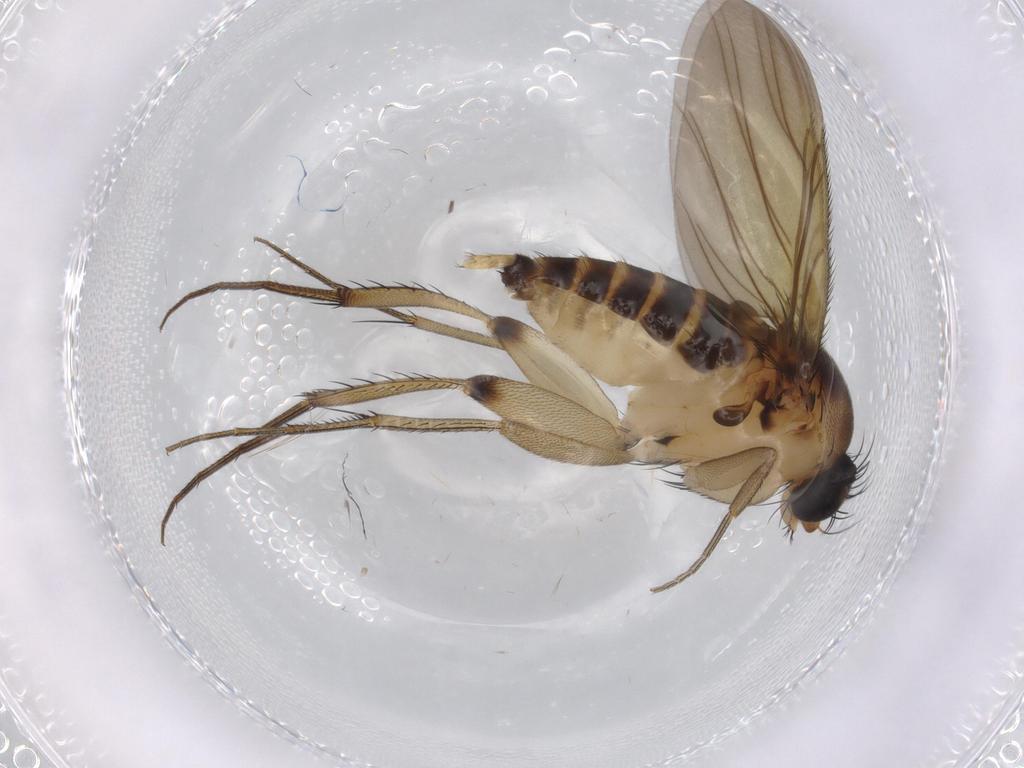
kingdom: Animalia
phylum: Arthropoda
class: Insecta
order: Diptera
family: Phoridae
